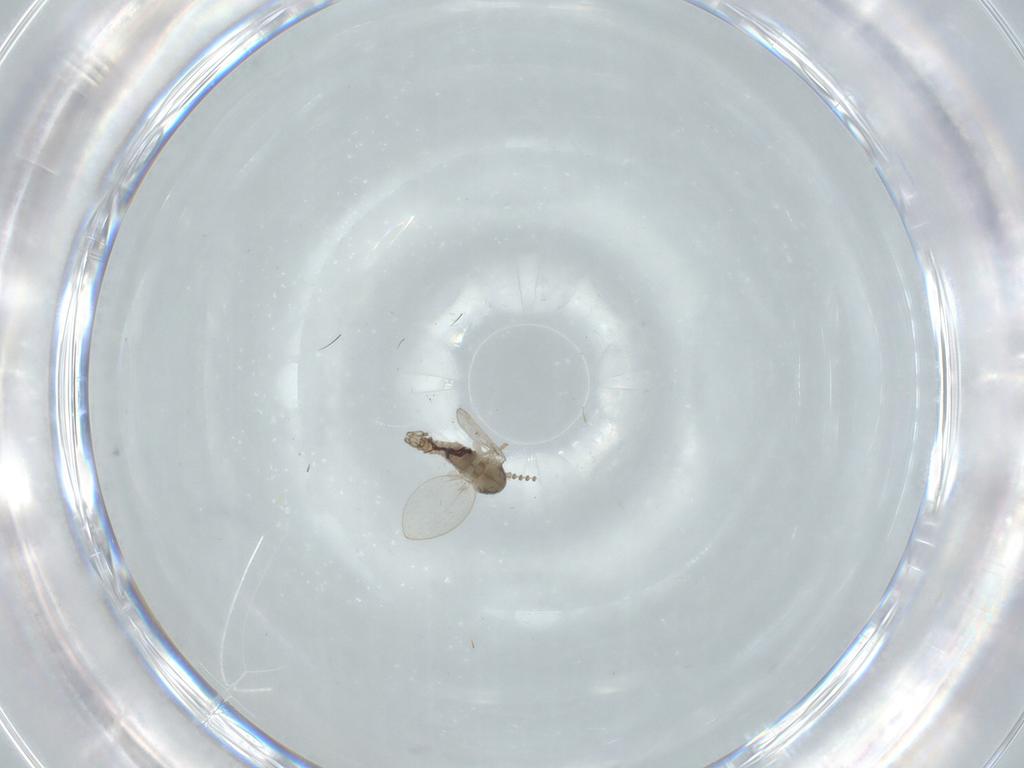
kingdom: Animalia
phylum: Arthropoda
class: Insecta
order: Diptera
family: Psychodidae
